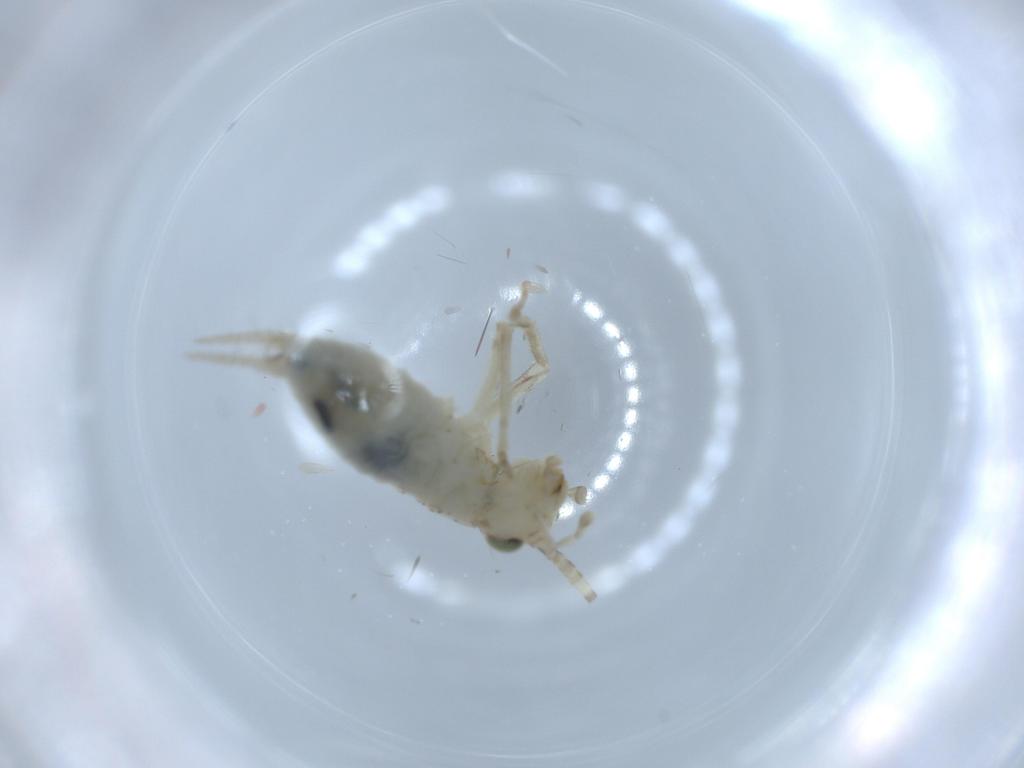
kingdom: Animalia
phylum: Arthropoda
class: Insecta
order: Orthoptera
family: Trigonidiidae
